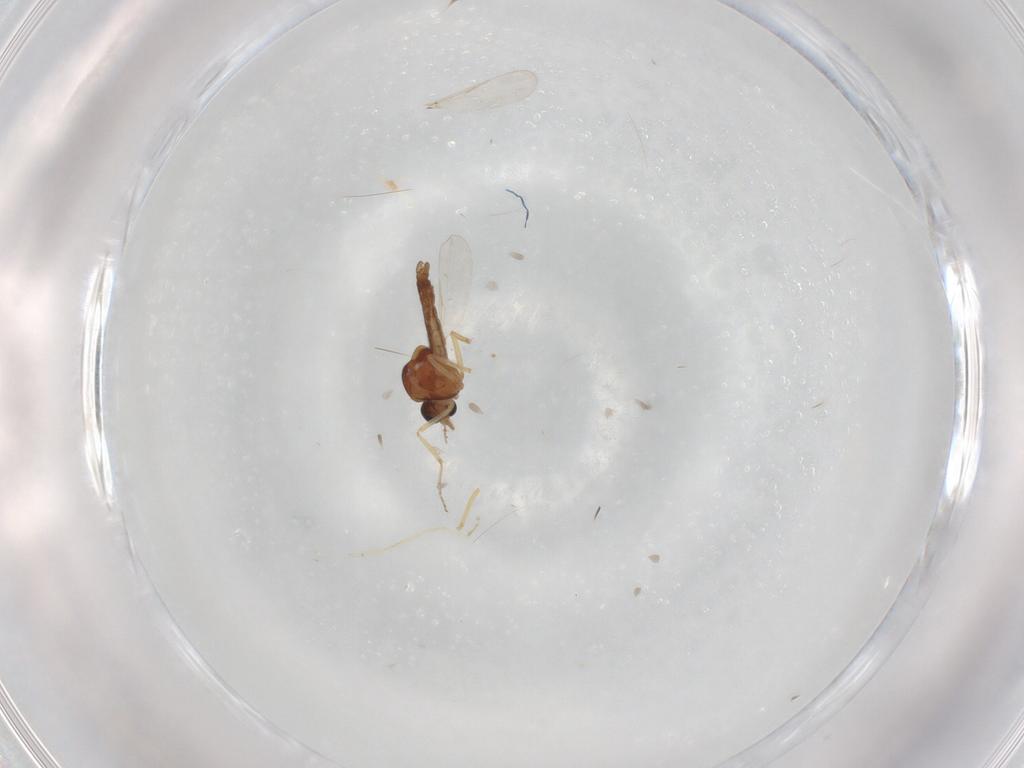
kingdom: Animalia
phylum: Arthropoda
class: Insecta
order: Diptera
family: Ceratopogonidae
